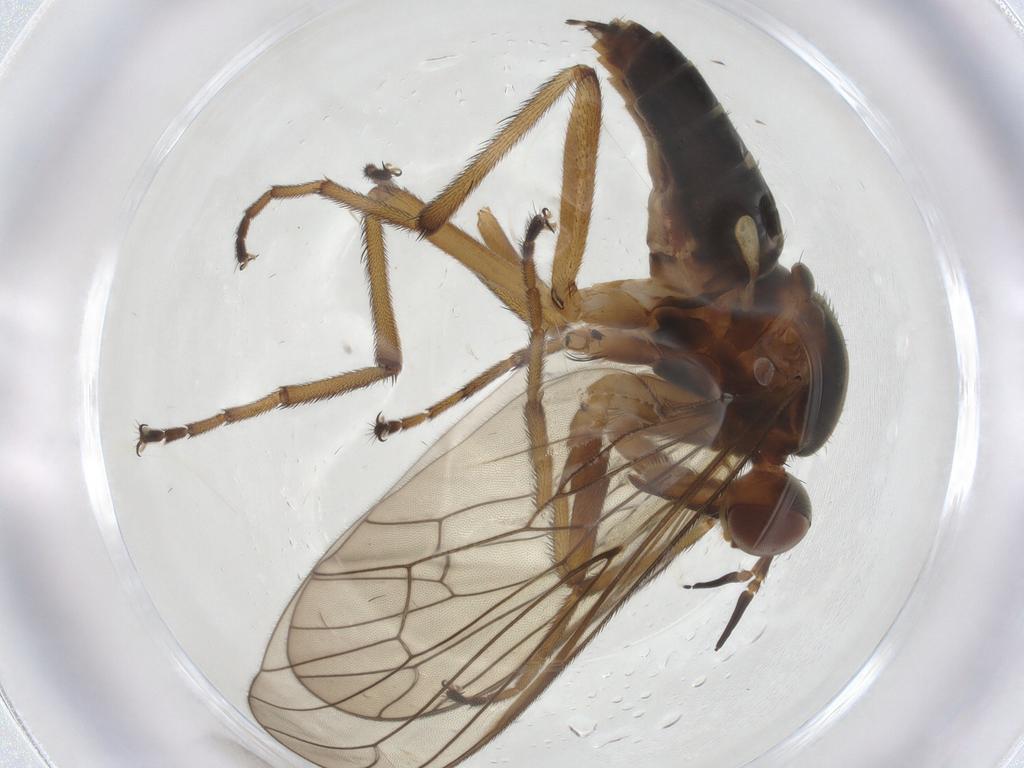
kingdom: Animalia
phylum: Arthropoda
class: Insecta
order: Diptera
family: Empididae
